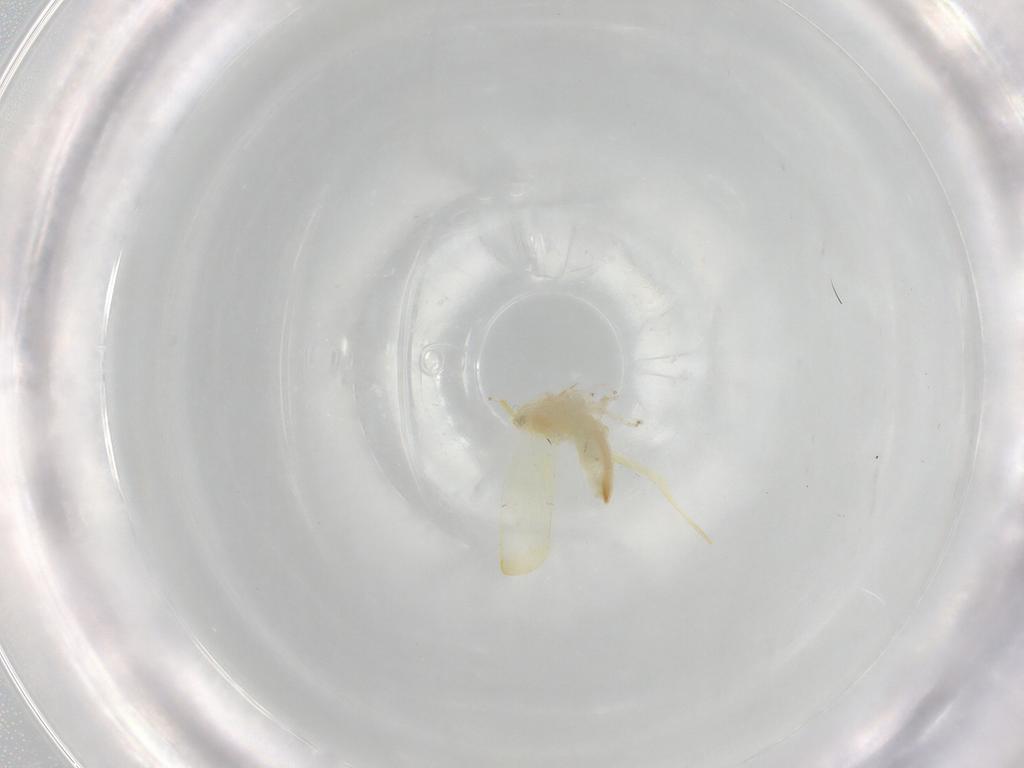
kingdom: Animalia
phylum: Arthropoda
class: Insecta
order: Hemiptera
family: Cicadellidae
